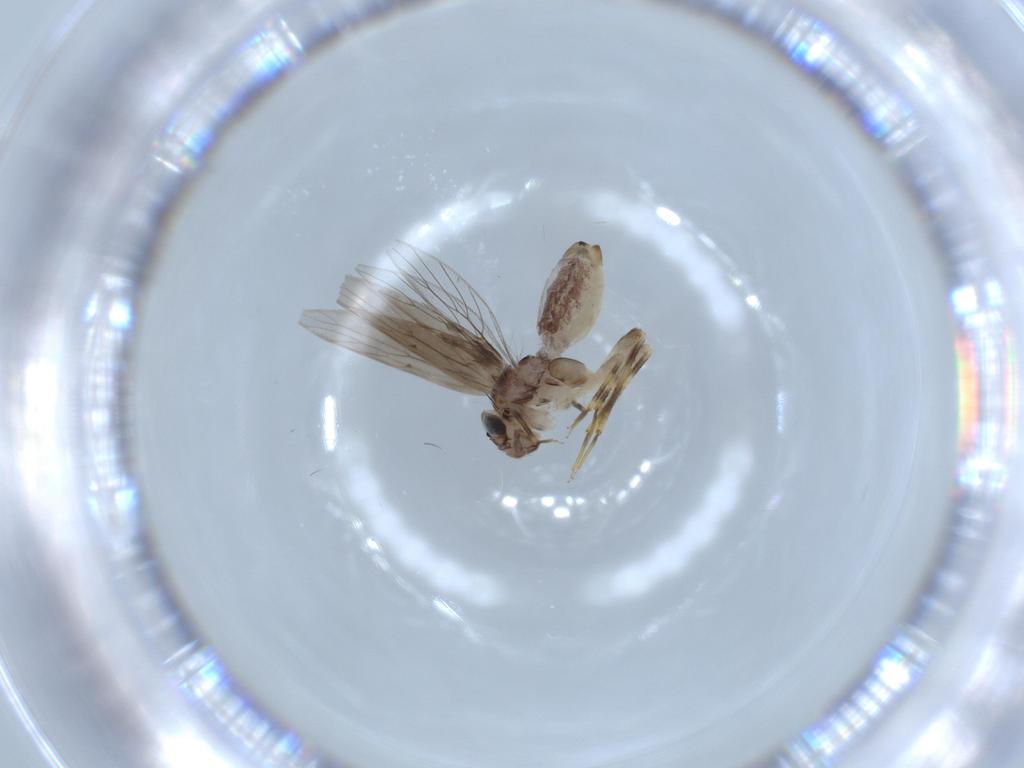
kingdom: Animalia
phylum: Arthropoda
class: Insecta
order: Psocodea
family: Lepidopsocidae
